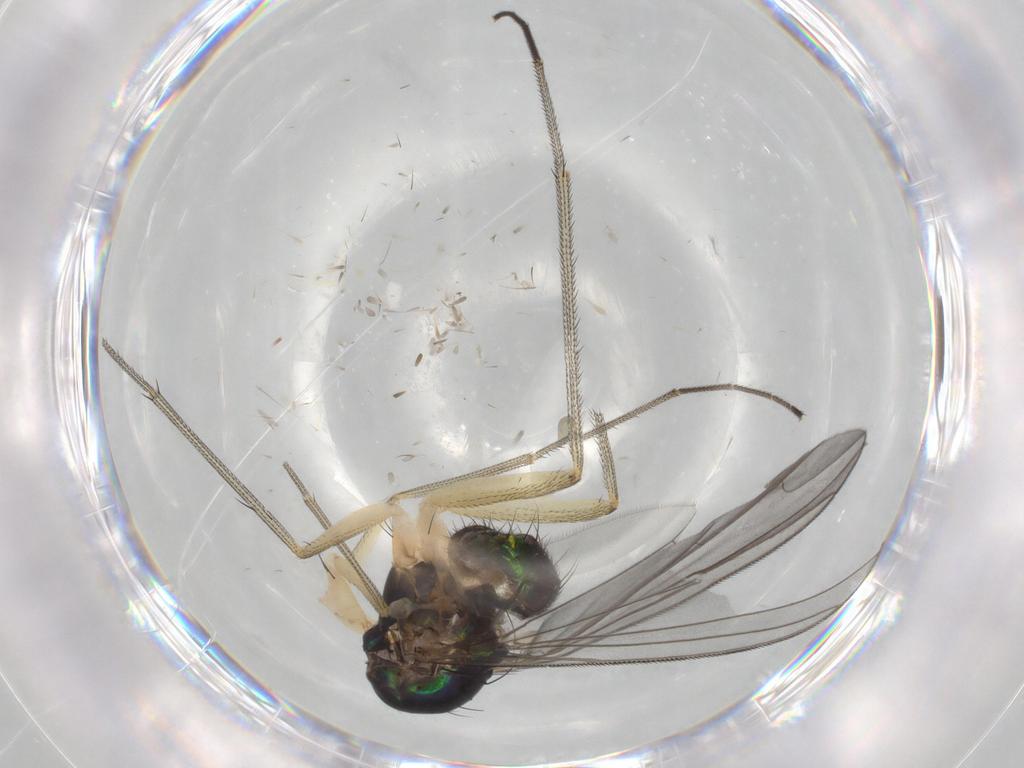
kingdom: Animalia
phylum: Arthropoda
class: Insecta
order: Diptera
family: Dolichopodidae
